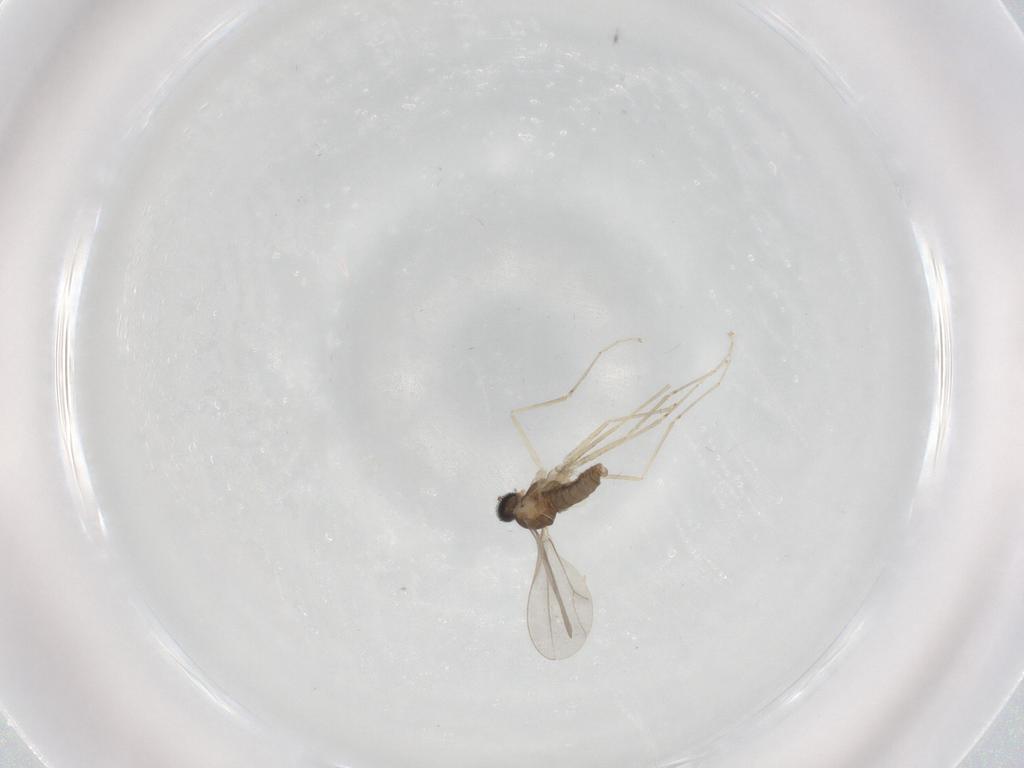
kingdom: Animalia
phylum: Arthropoda
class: Insecta
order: Diptera
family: Cecidomyiidae
